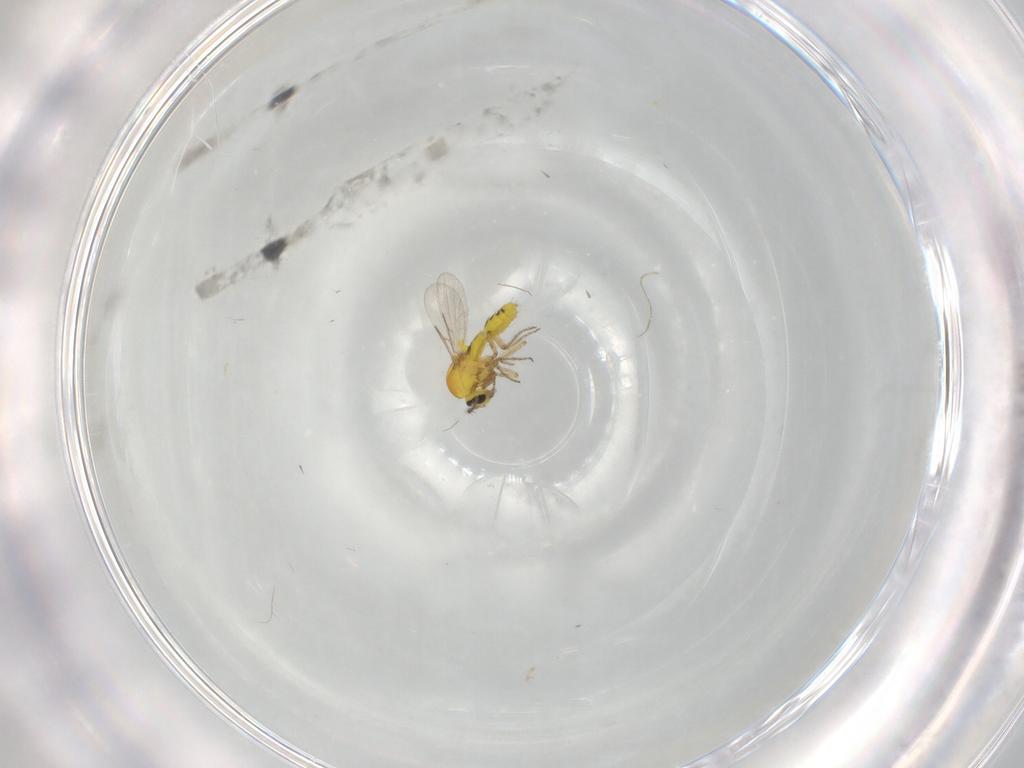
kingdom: Animalia
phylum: Arthropoda
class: Insecta
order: Diptera
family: Ceratopogonidae
